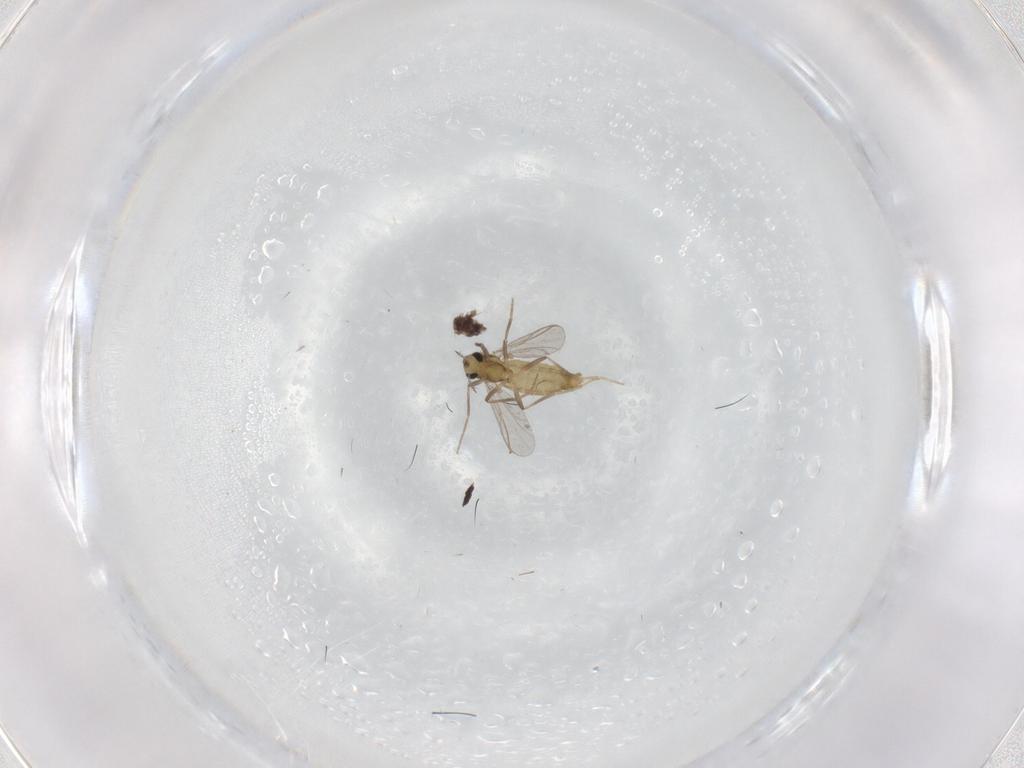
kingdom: Animalia
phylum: Arthropoda
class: Insecta
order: Diptera
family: Chironomidae
